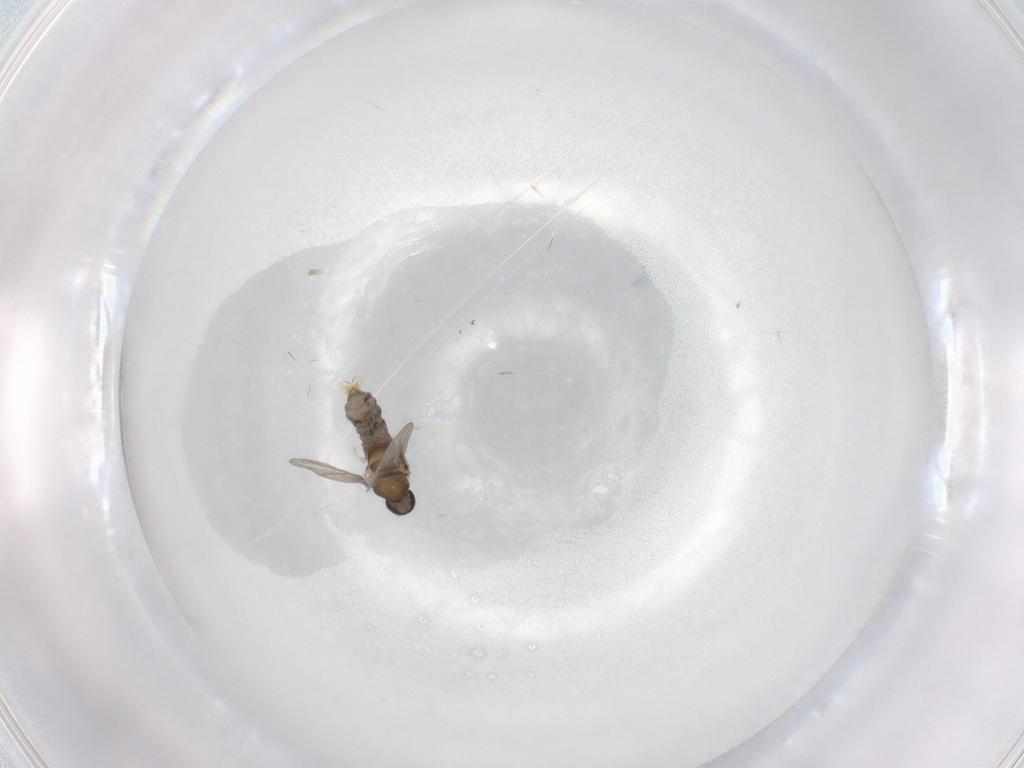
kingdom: Animalia
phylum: Arthropoda
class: Insecta
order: Diptera
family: Cecidomyiidae
